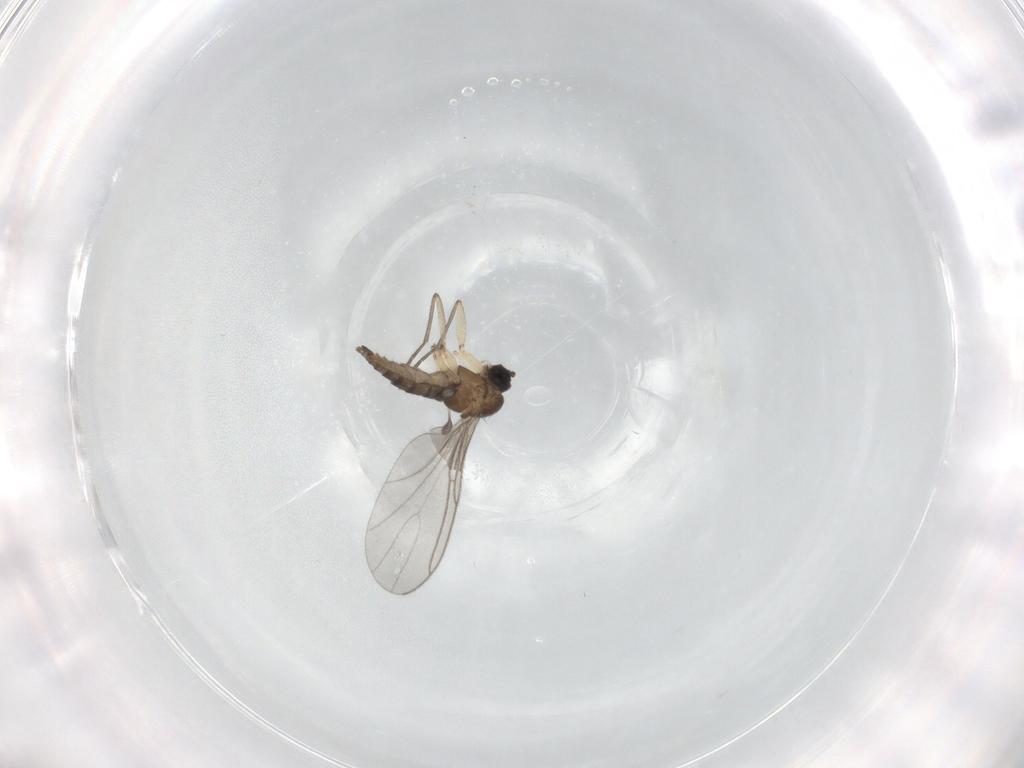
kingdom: Animalia
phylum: Arthropoda
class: Insecta
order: Diptera
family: Sciaridae
